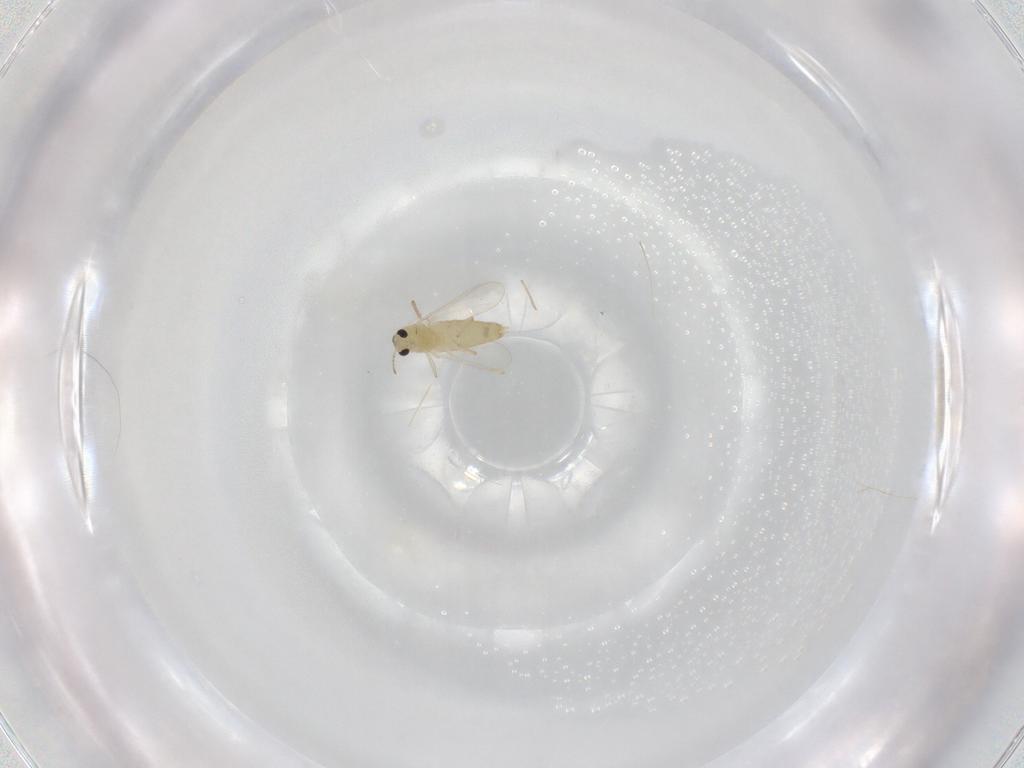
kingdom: Animalia
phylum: Arthropoda
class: Insecta
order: Diptera
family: Chironomidae
